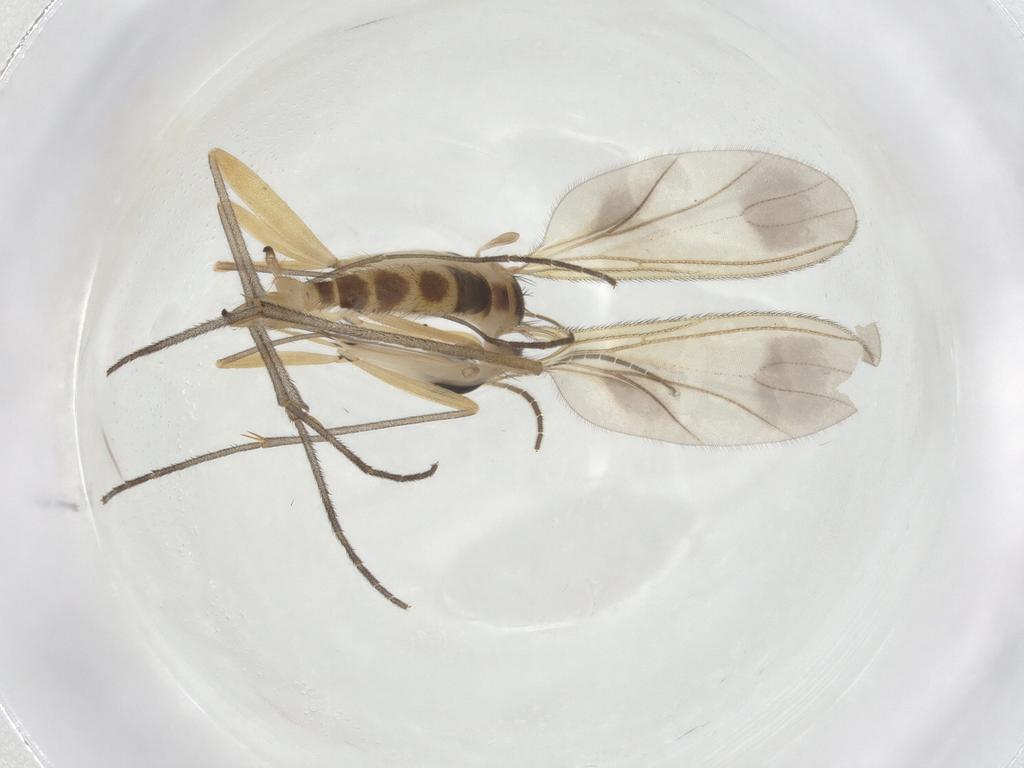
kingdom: Animalia
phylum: Arthropoda
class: Insecta
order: Diptera
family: Sciaridae
